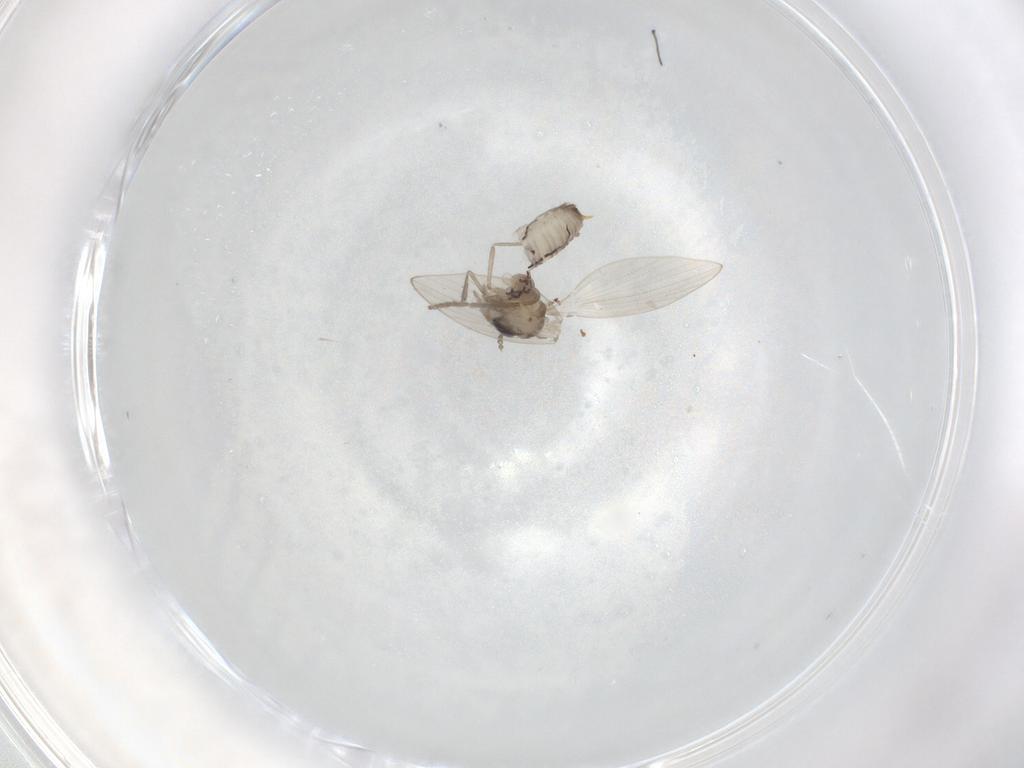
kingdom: Animalia
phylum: Arthropoda
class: Insecta
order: Diptera
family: Ceratopogonidae
